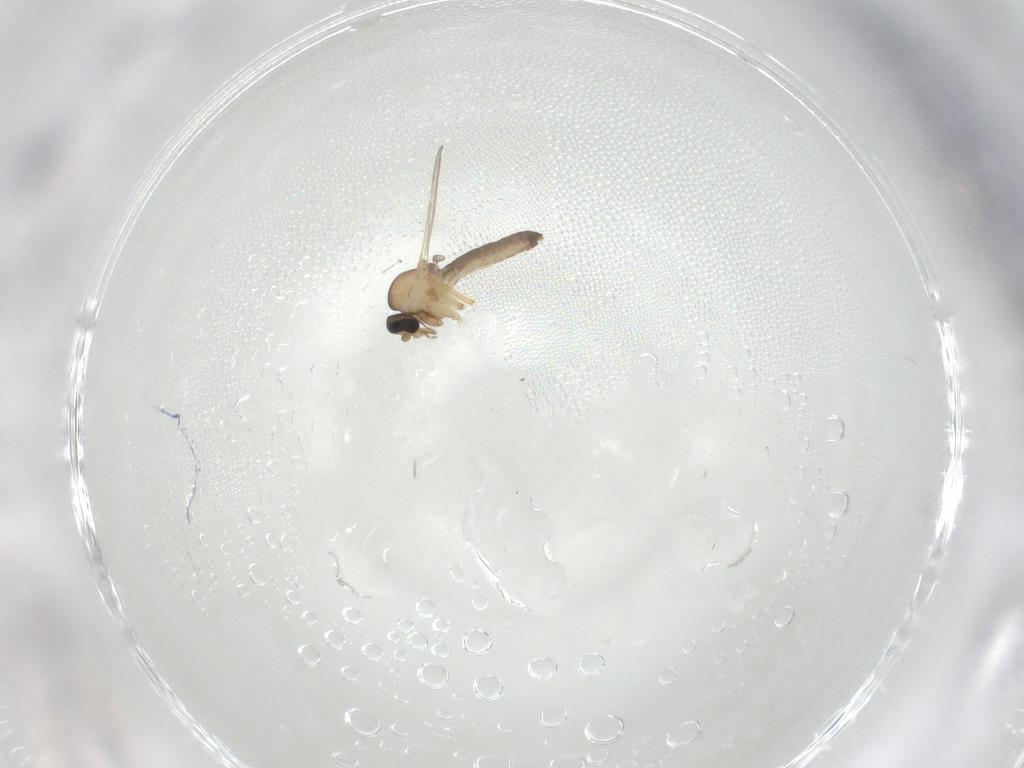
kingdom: Animalia
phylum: Arthropoda
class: Insecta
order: Diptera
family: Ceratopogonidae
